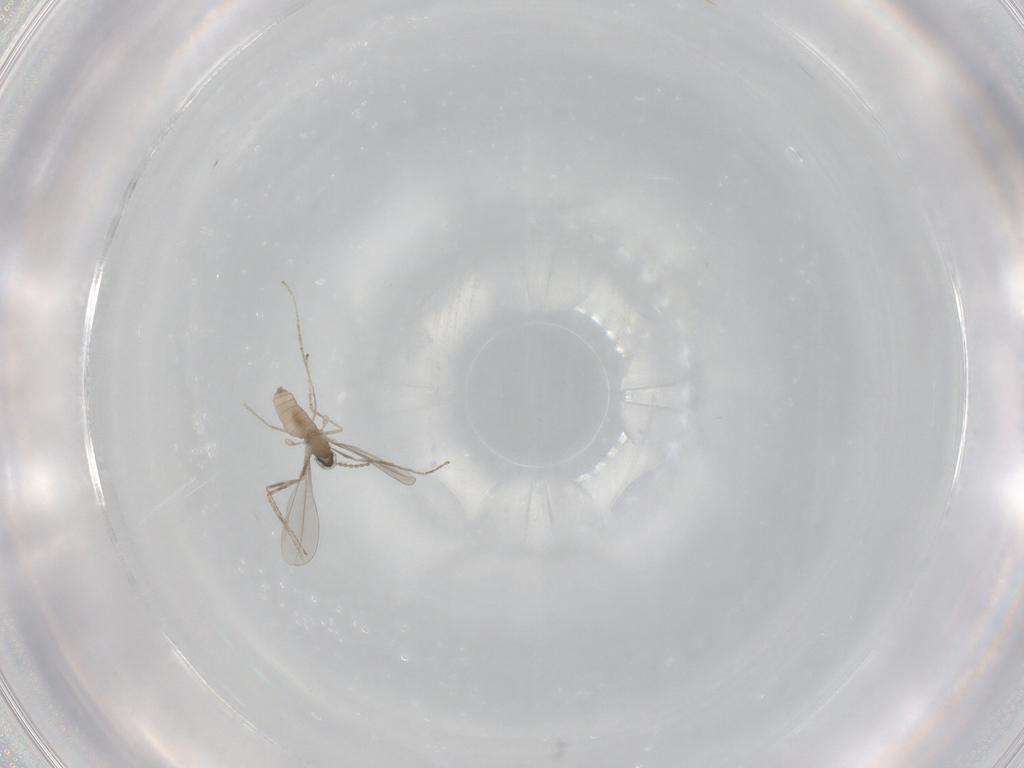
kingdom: Animalia
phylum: Arthropoda
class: Insecta
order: Diptera
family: Cecidomyiidae
